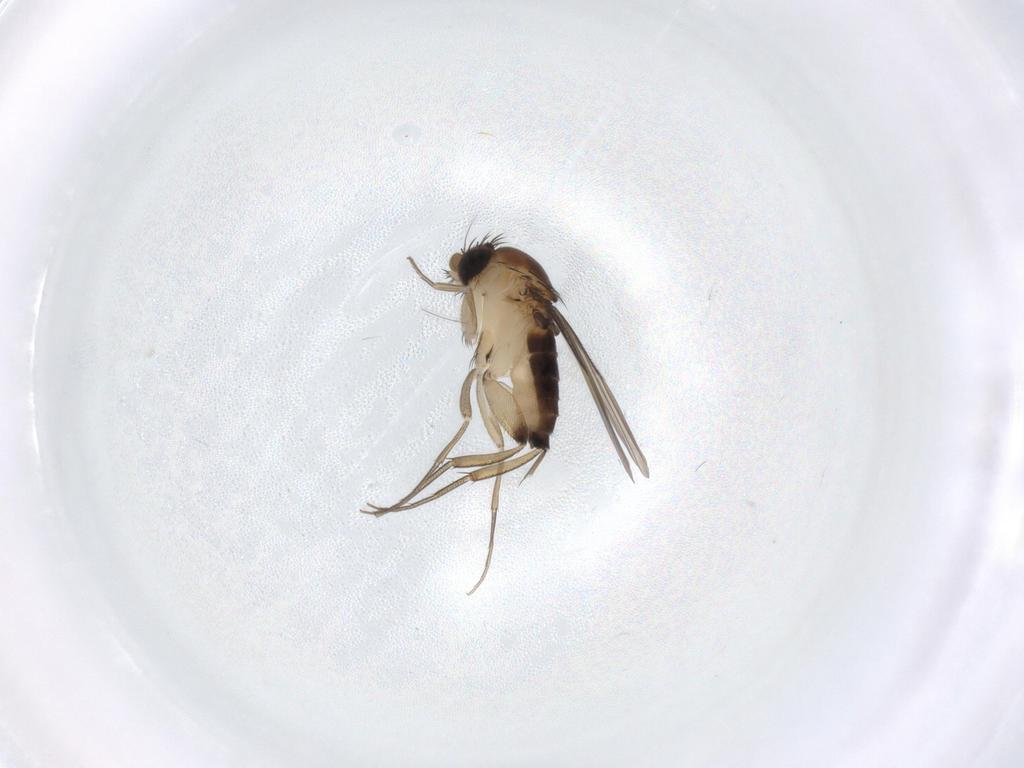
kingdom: Animalia
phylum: Arthropoda
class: Insecta
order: Diptera
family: Phoridae
